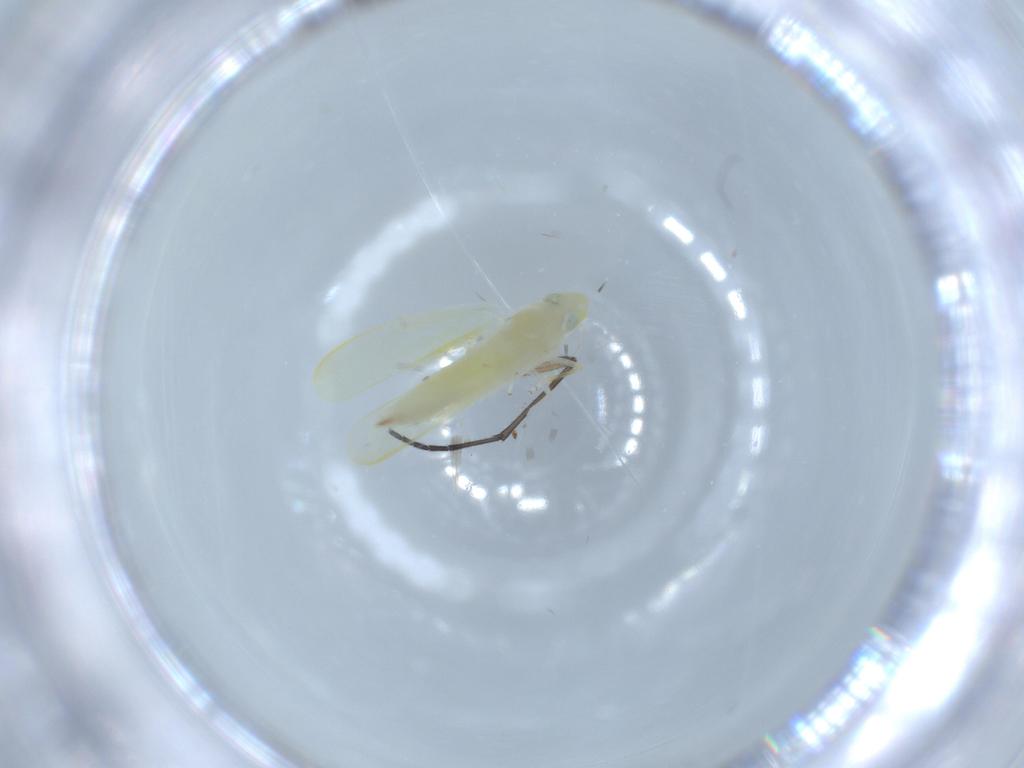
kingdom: Animalia
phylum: Arthropoda
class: Insecta
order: Hemiptera
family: Cicadellidae
